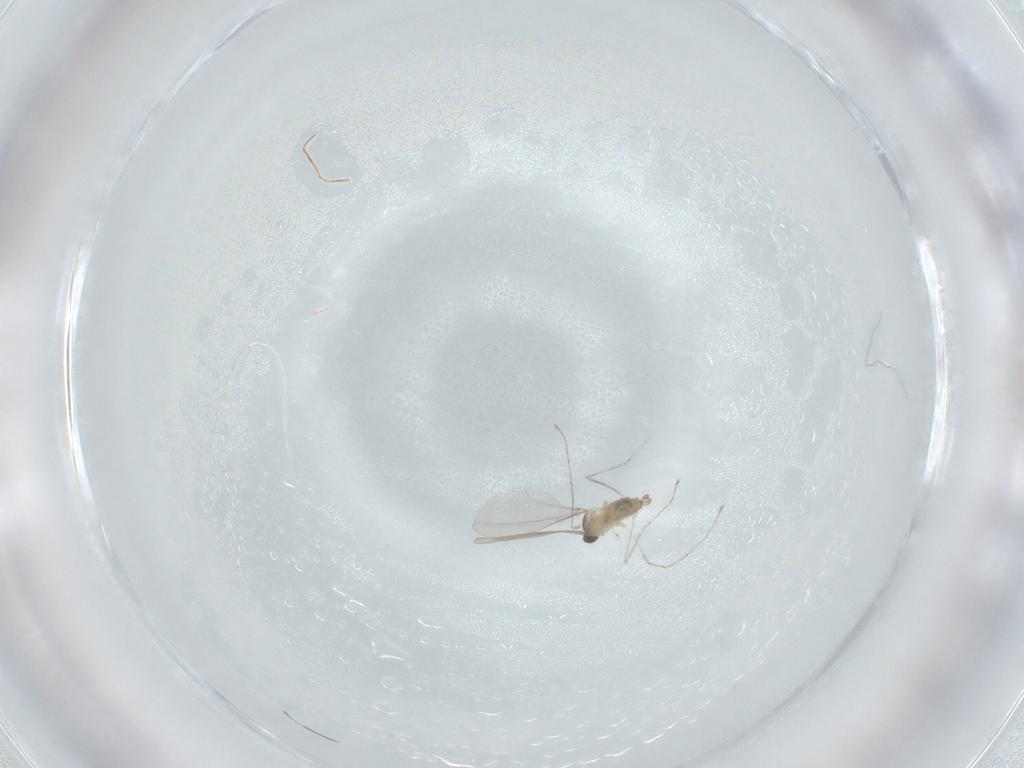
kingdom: Animalia
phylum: Arthropoda
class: Insecta
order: Diptera
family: Cecidomyiidae
